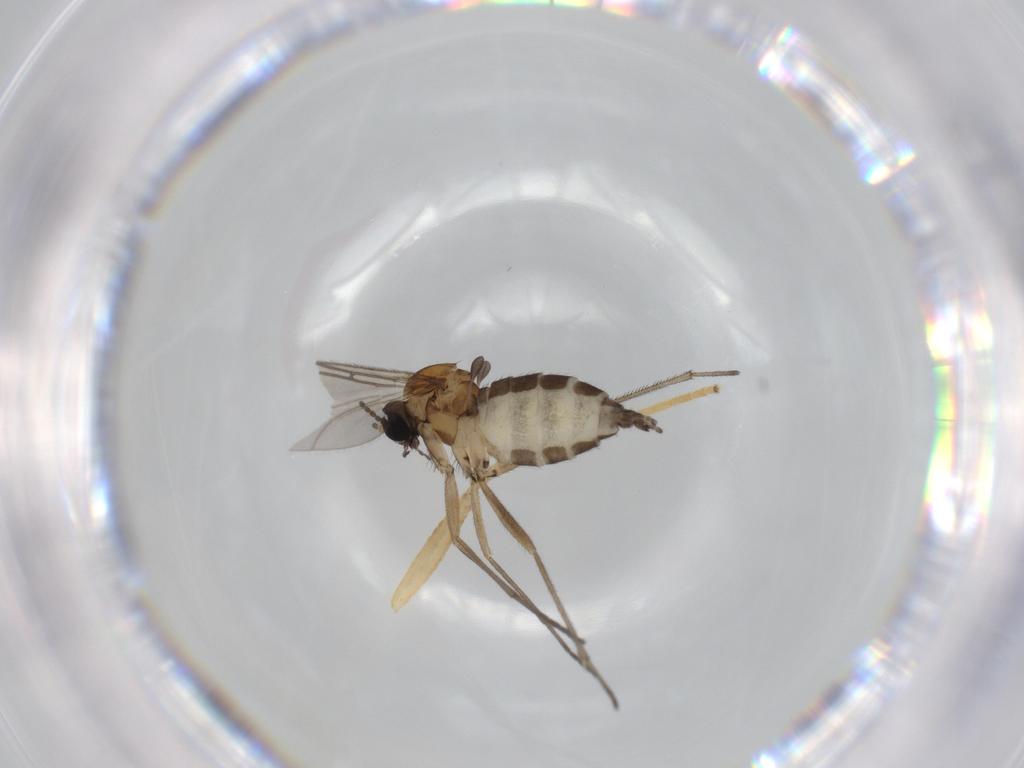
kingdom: Animalia
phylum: Arthropoda
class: Insecta
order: Diptera
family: Sciaridae
